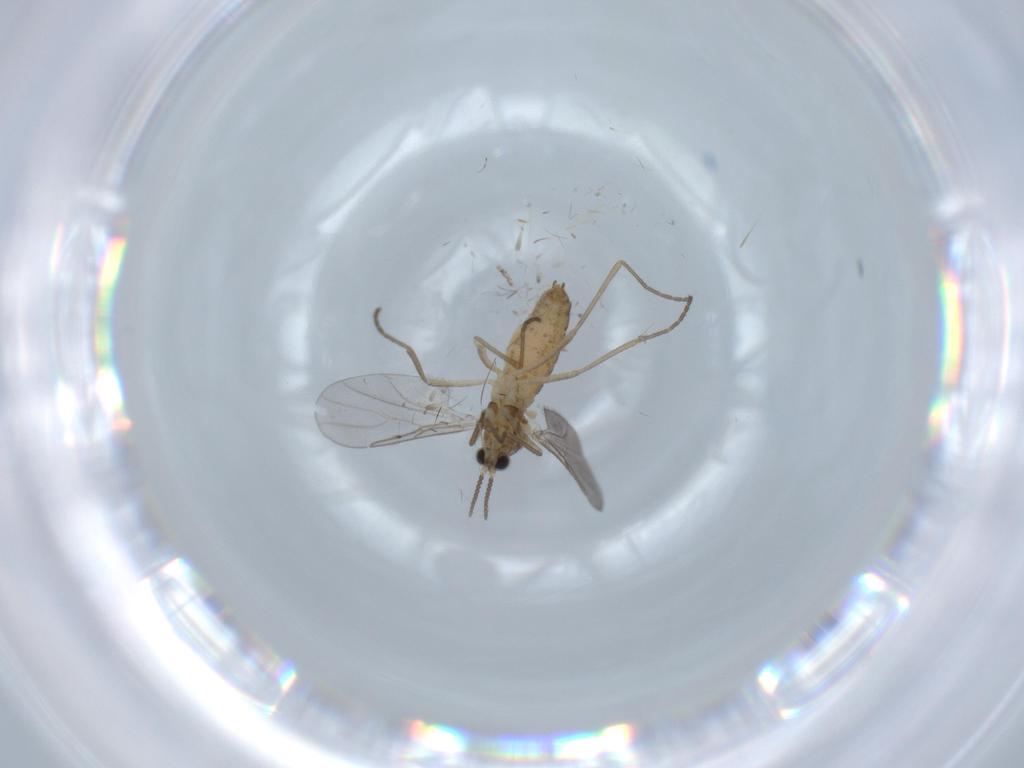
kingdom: Animalia
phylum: Arthropoda
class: Insecta
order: Diptera
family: Cecidomyiidae
